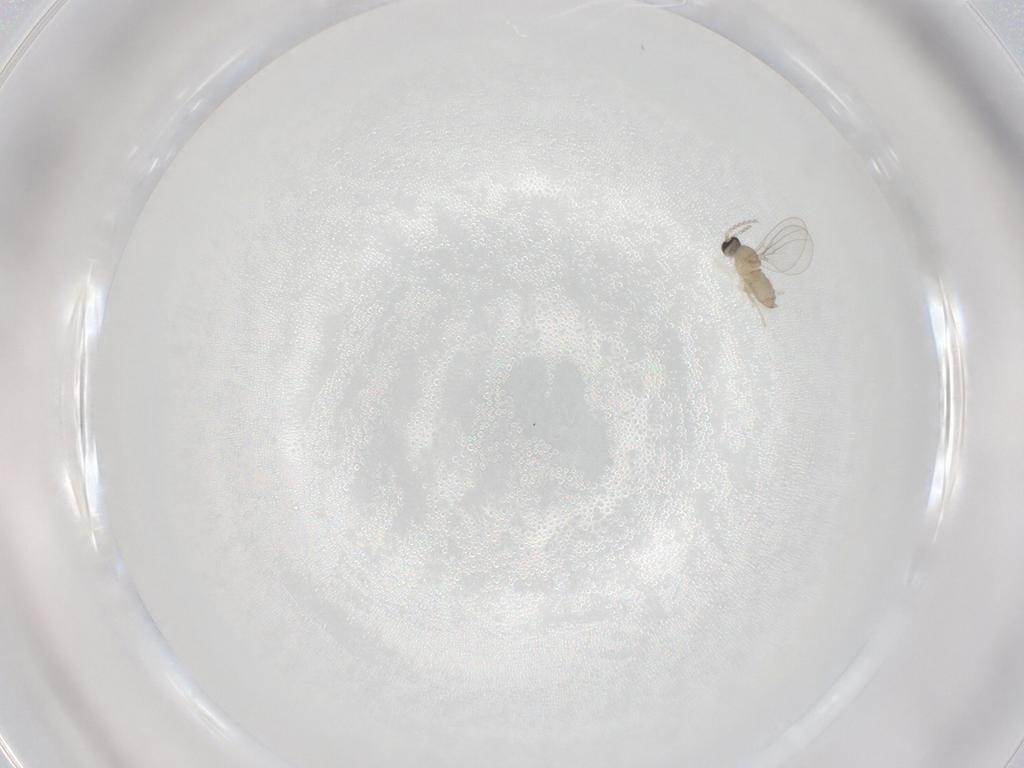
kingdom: Animalia
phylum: Arthropoda
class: Insecta
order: Diptera
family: Cecidomyiidae
